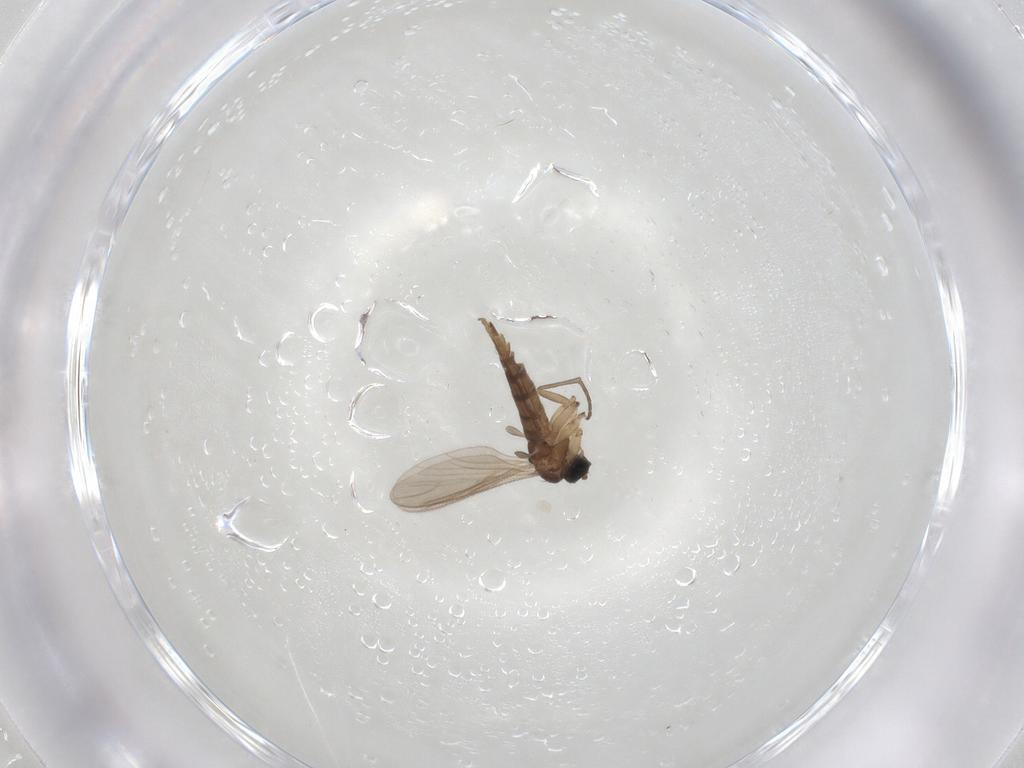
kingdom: Animalia
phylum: Arthropoda
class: Insecta
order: Diptera
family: Sciaridae
